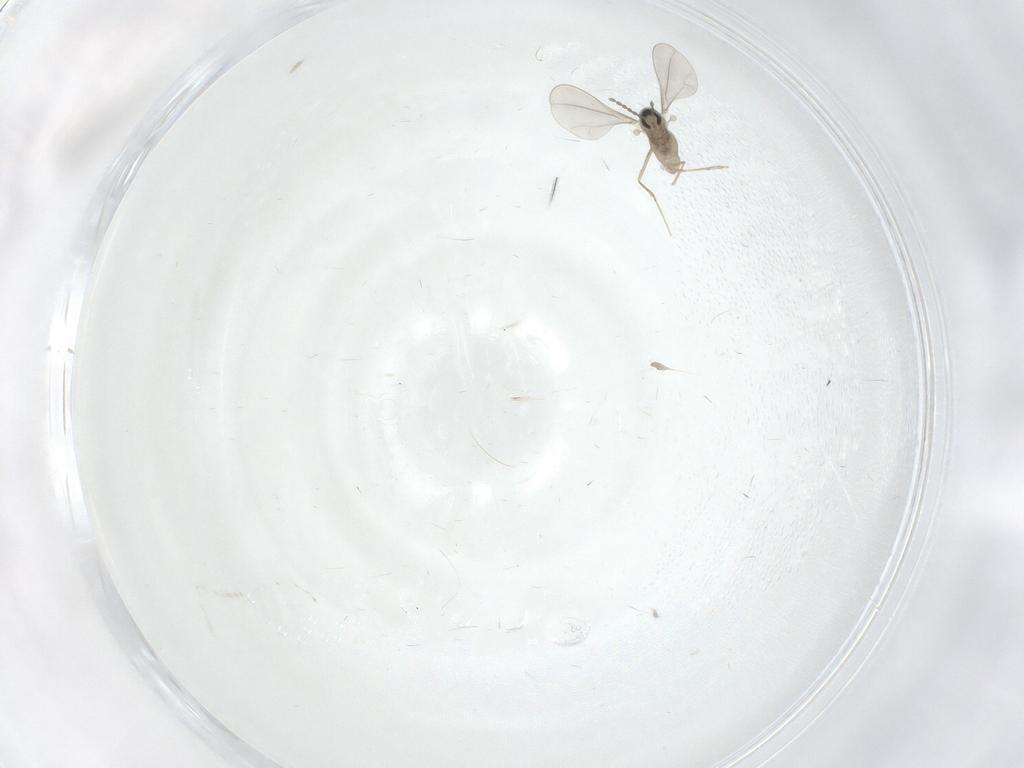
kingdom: Animalia
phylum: Arthropoda
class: Insecta
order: Diptera
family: Cecidomyiidae
